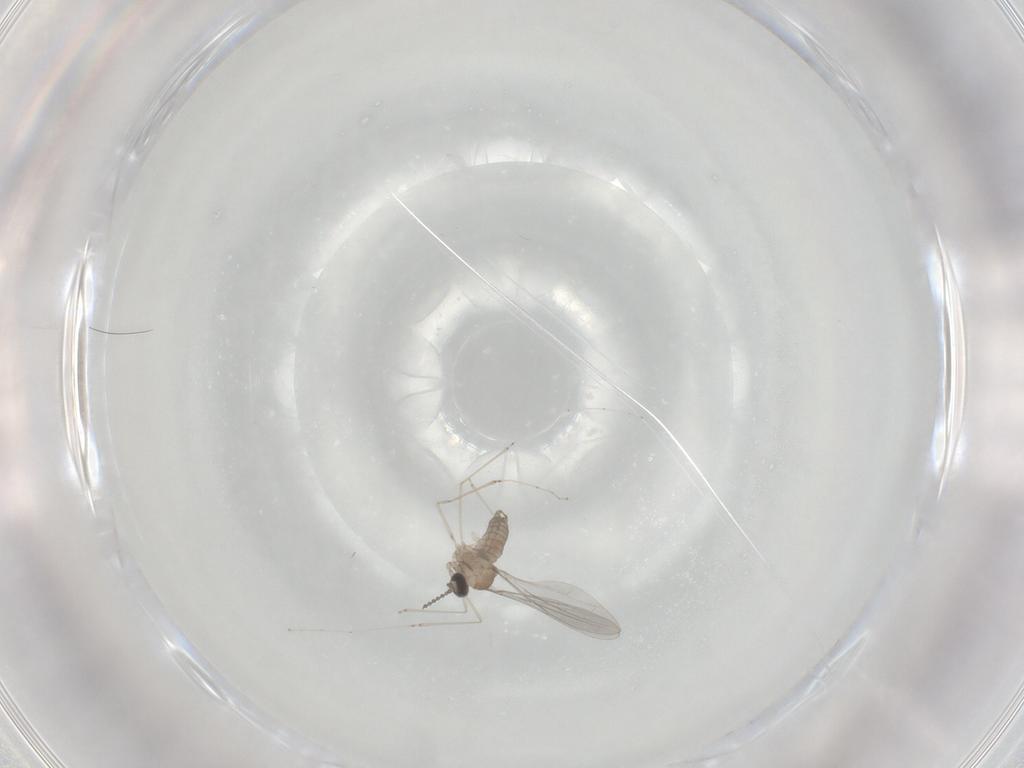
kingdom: Animalia
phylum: Arthropoda
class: Insecta
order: Diptera
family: Cecidomyiidae
